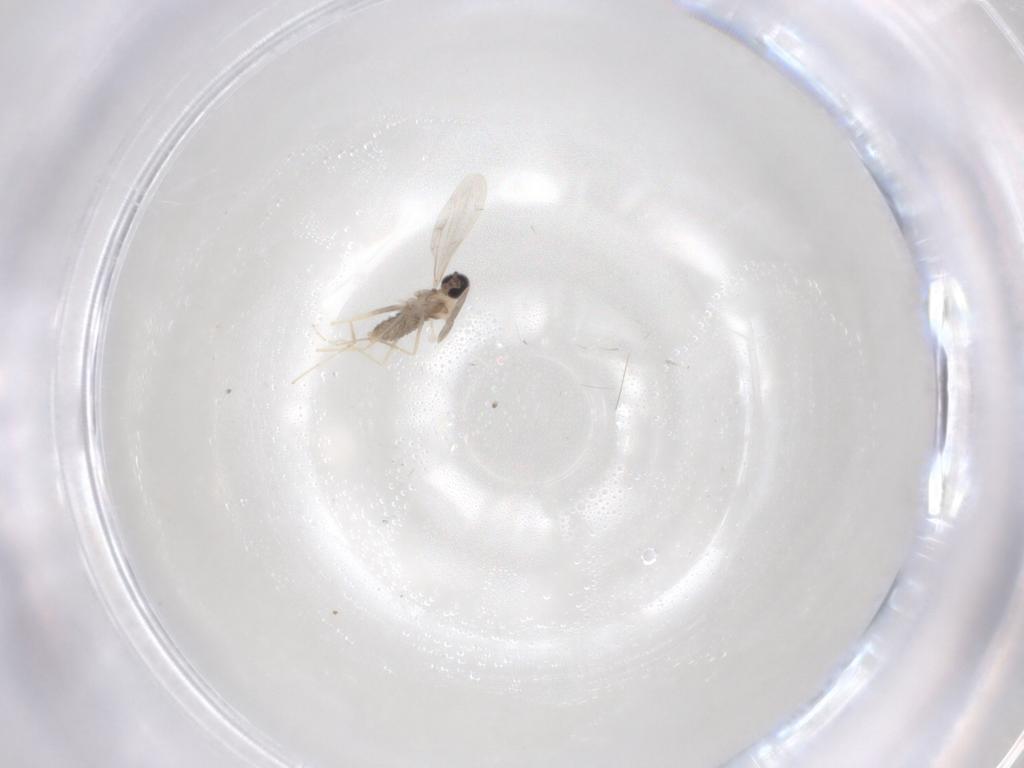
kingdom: Animalia
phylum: Arthropoda
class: Insecta
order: Diptera
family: Cecidomyiidae
